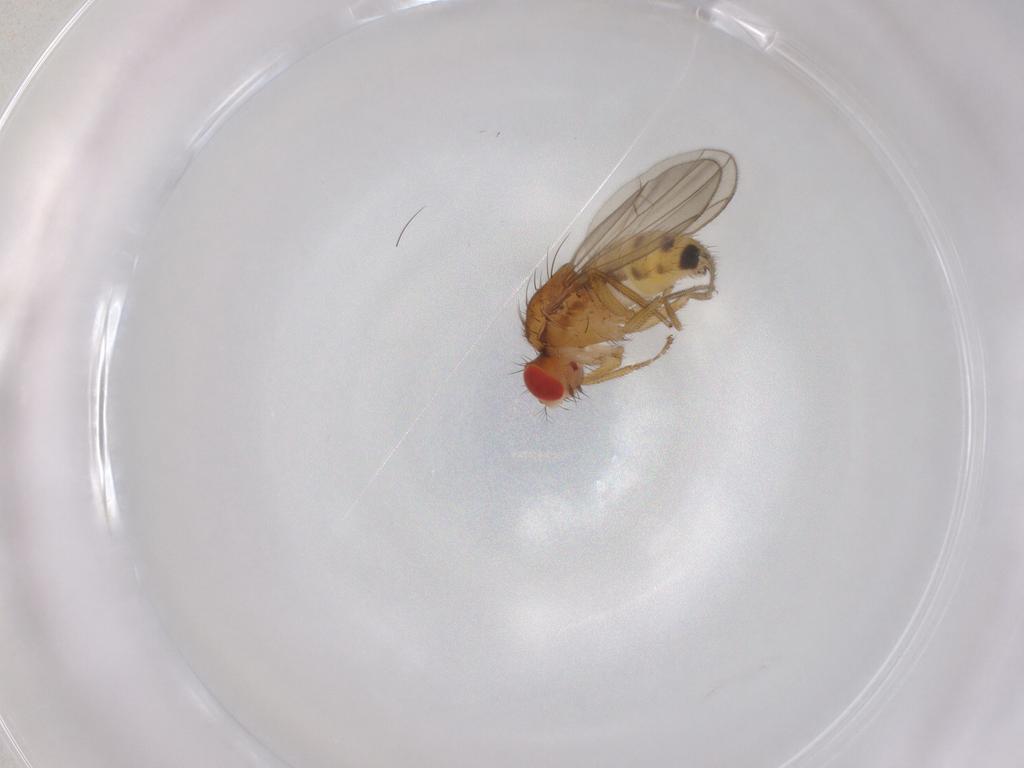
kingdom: Animalia
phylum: Arthropoda
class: Insecta
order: Diptera
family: Drosophilidae
